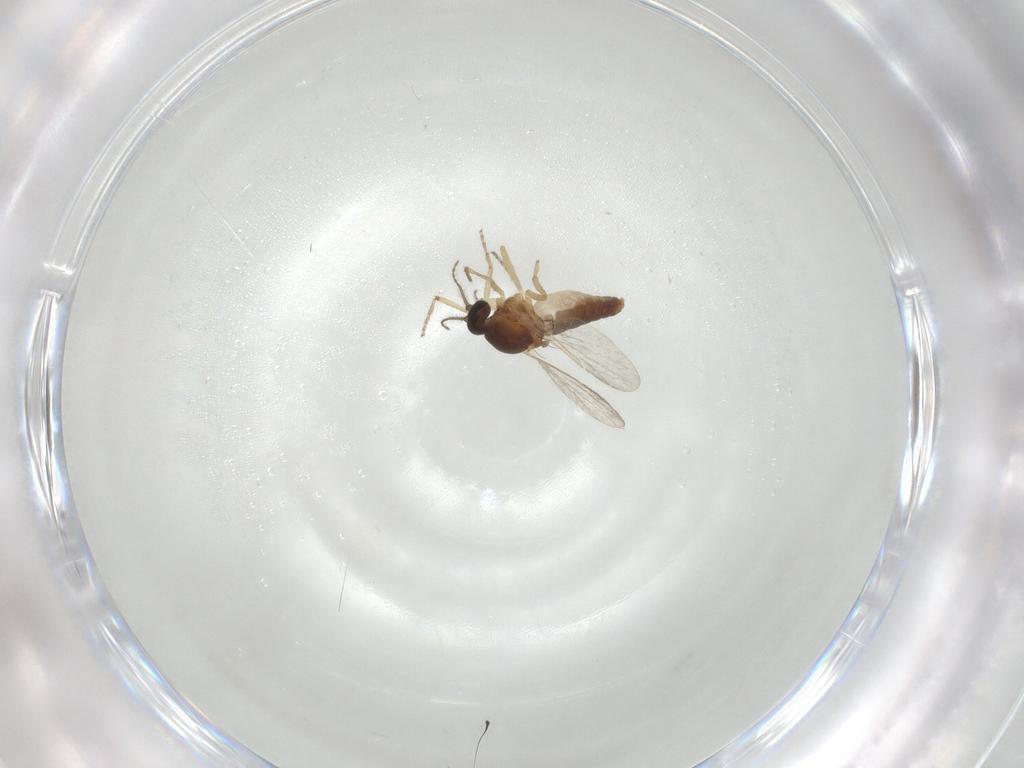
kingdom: Animalia
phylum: Arthropoda
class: Insecta
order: Diptera
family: Ceratopogonidae
